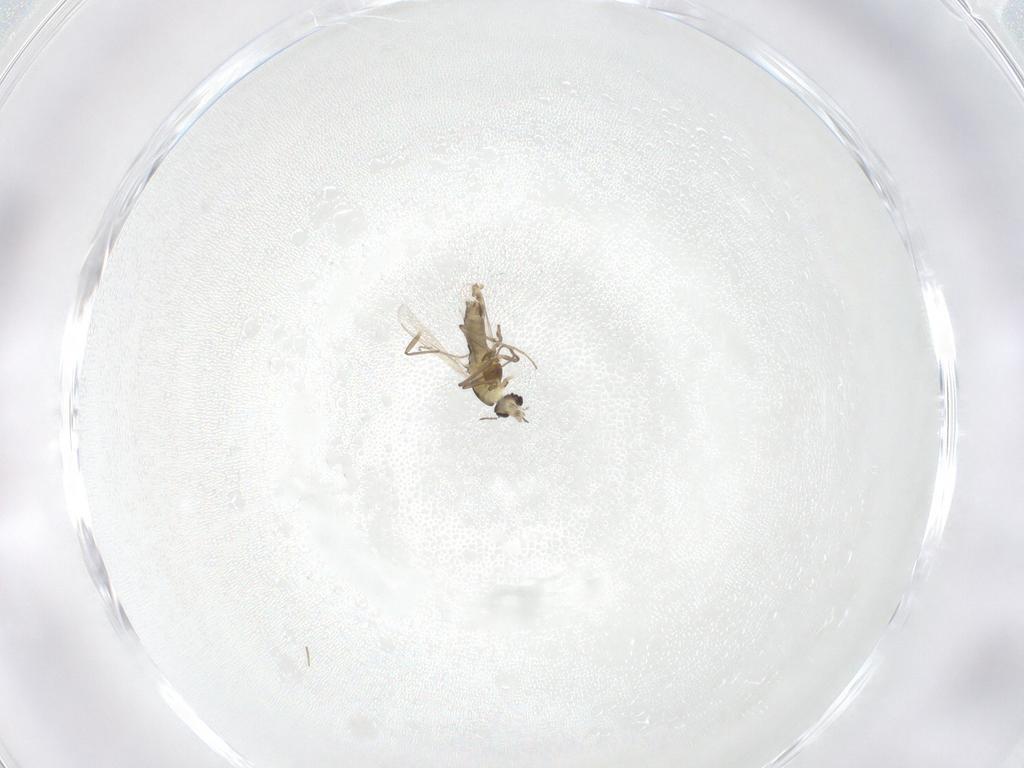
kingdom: Animalia
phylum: Arthropoda
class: Insecta
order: Diptera
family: Chironomidae
